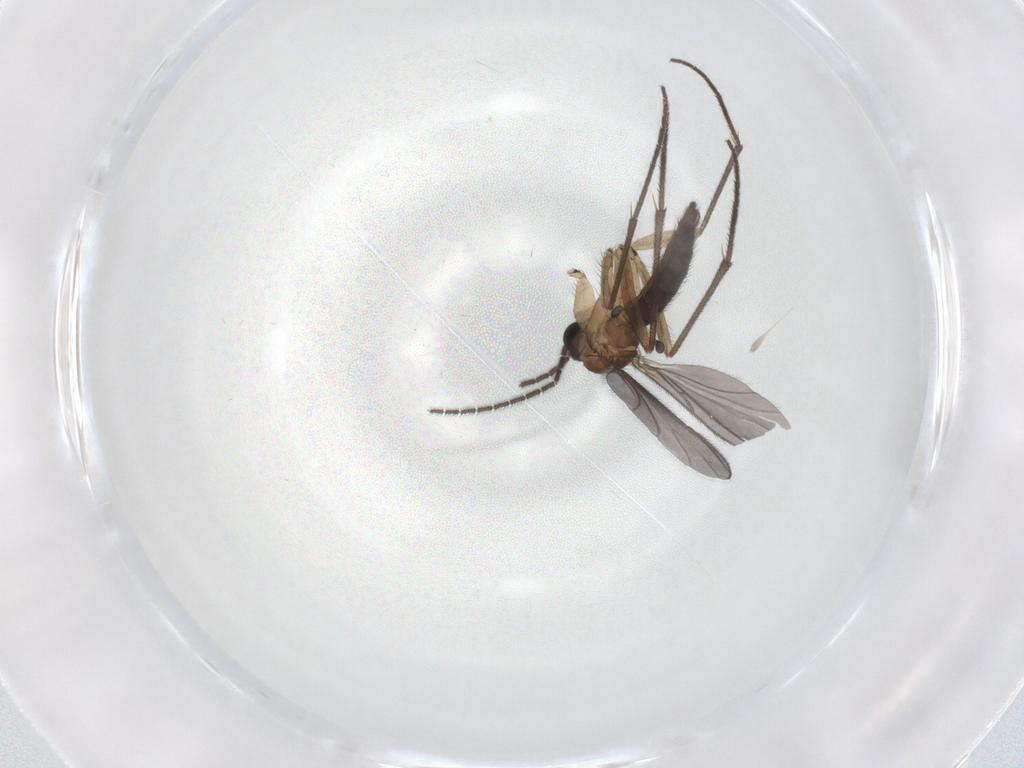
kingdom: Animalia
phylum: Arthropoda
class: Insecta
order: Diptera
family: Sciaridae
